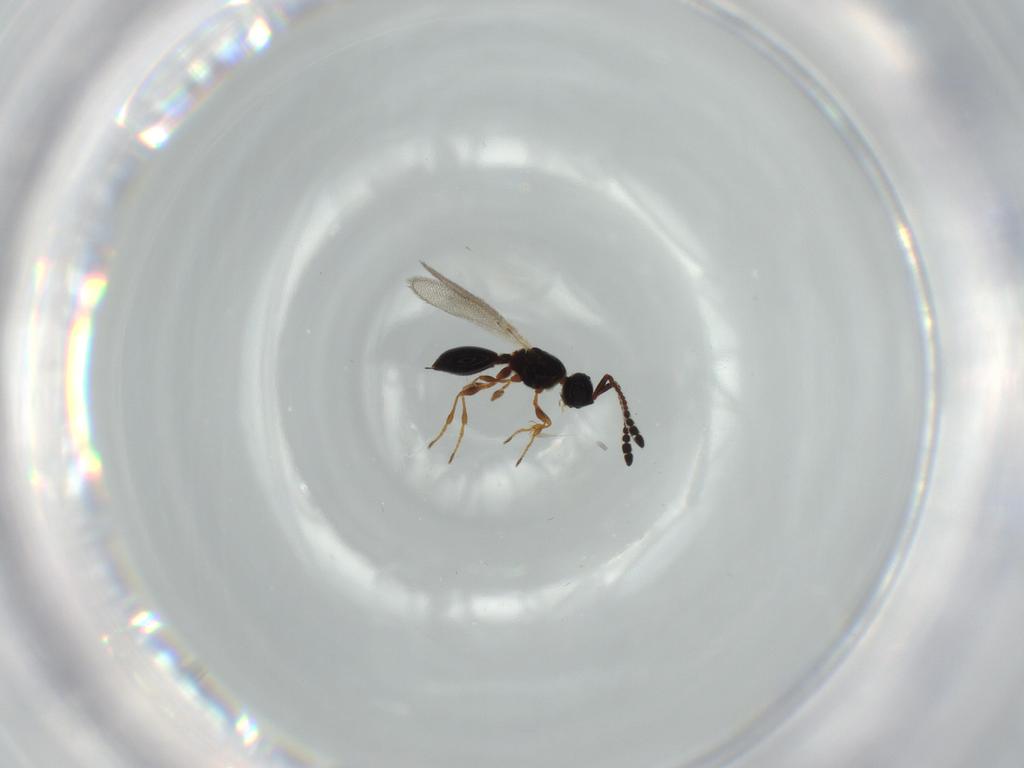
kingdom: Animalia
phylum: Arthropoda
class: Insecta
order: Hymenoptera
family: Diapriidae
